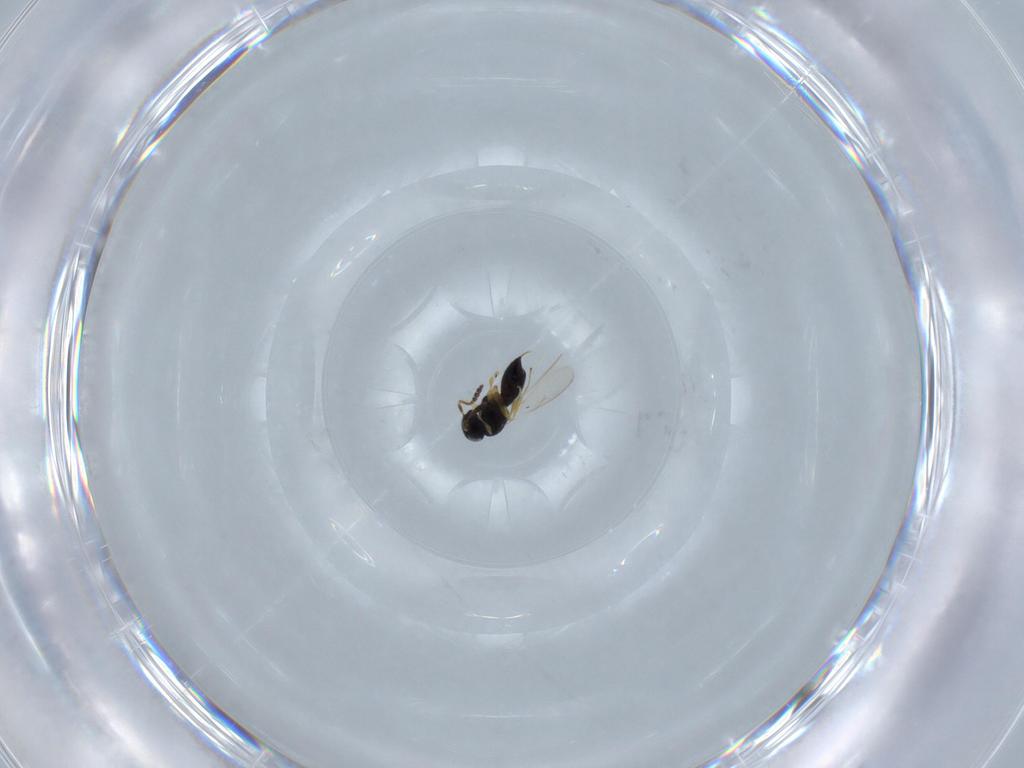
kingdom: Animalia
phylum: Arthropoda
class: Insecta
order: Hymenoptera
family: Scelionidae
